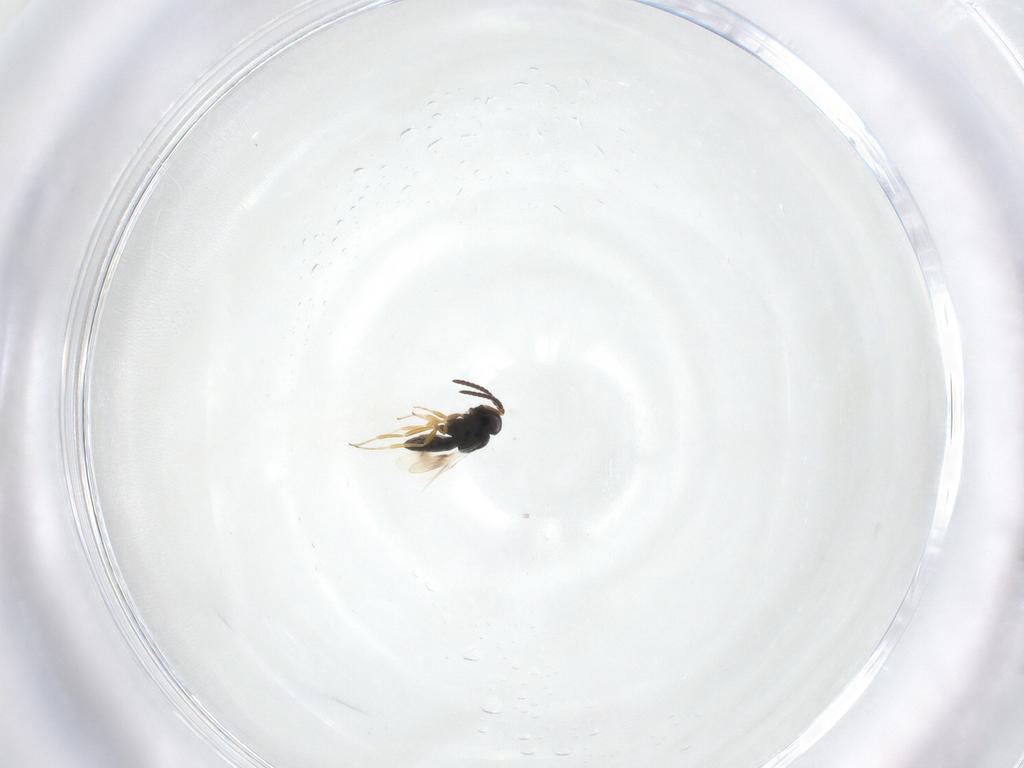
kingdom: Animalia
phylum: Arthropoda
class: Insecta
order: Hymenoptera
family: Scelionidae
